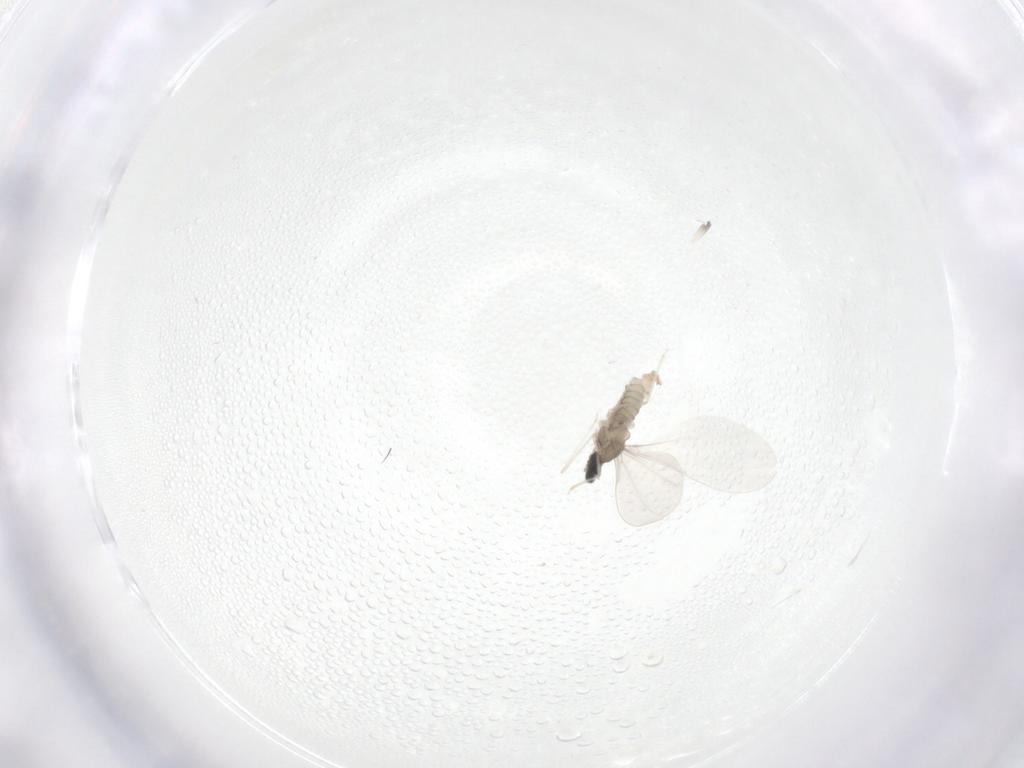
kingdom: Animalia
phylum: Arthropoda
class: Insecta
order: Diptera
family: Cecidomyiidae
